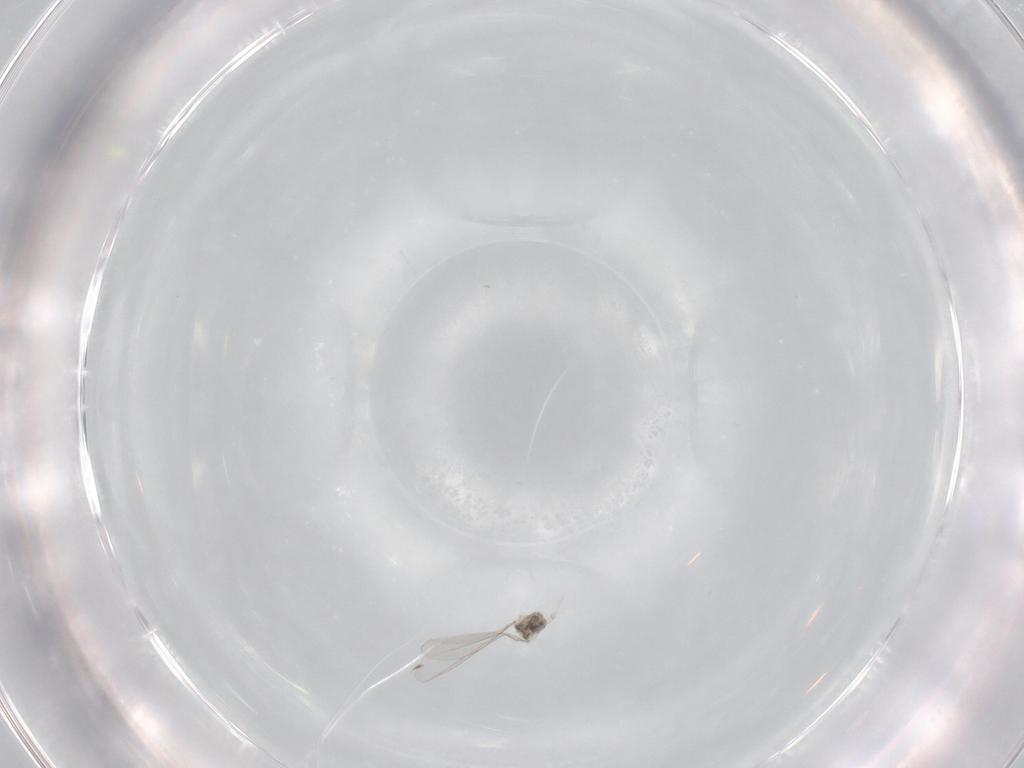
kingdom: Animalia
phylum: Arthropoda
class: Insecta
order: Diptera
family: Cecidomyiidae
